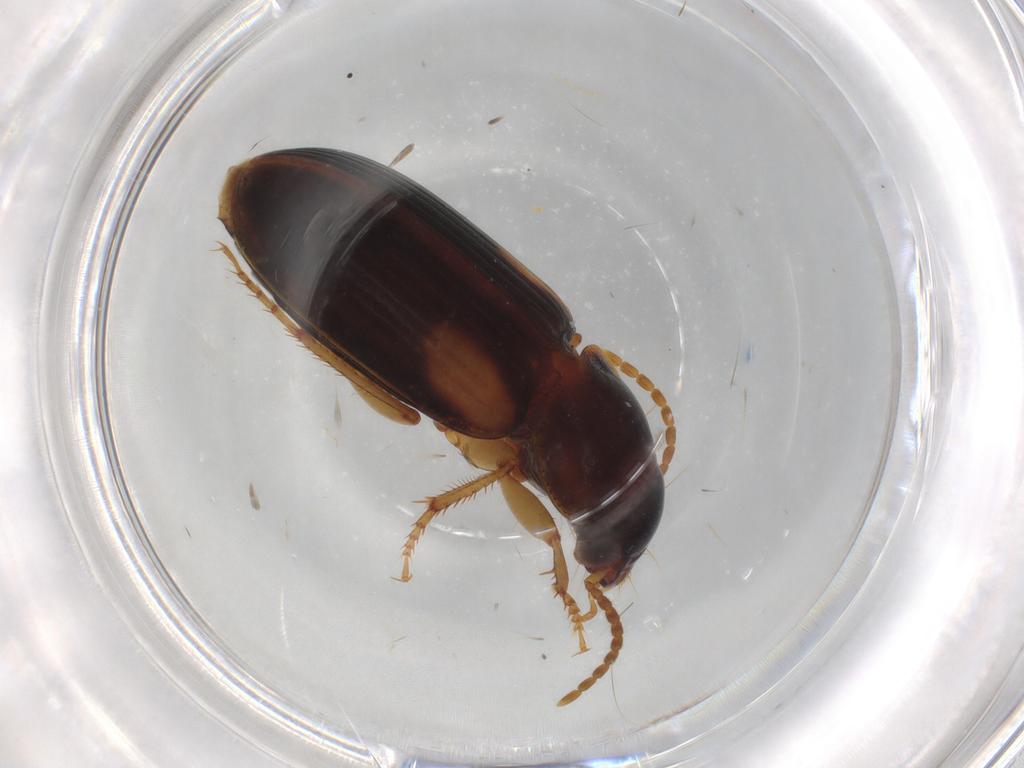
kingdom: Animalia
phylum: Arthropoda
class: Insecta
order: Coleoptera
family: Carabidae
